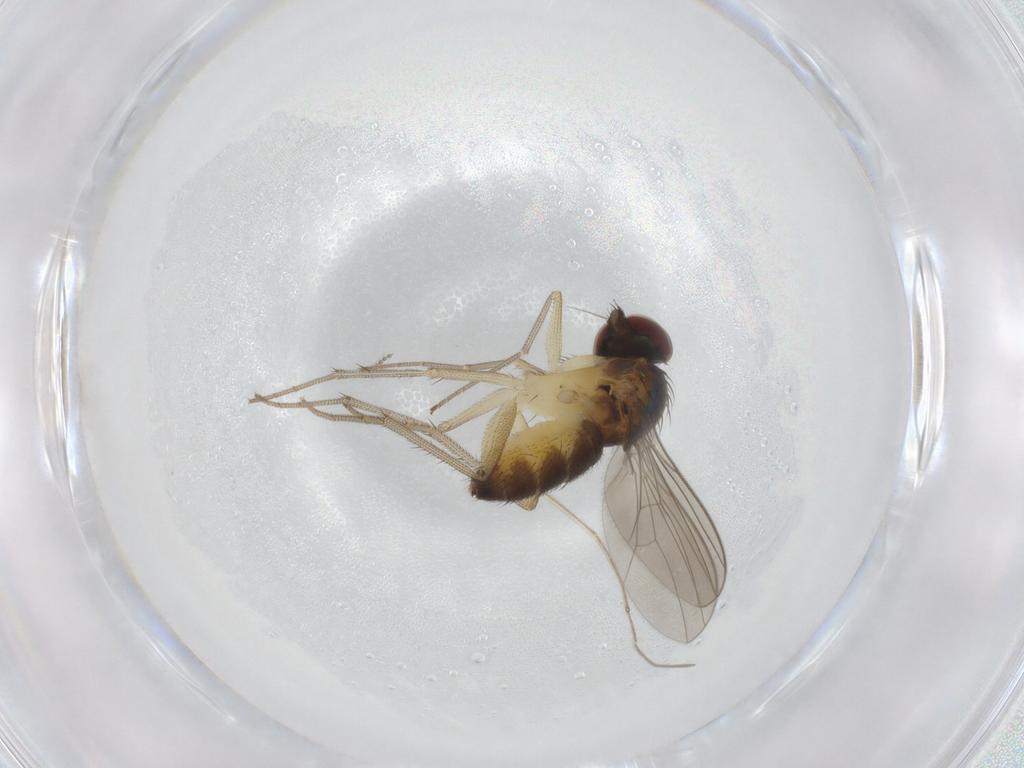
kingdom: Animalia
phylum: Arthropoda
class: Insecta
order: Diptera
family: Dolichopodidae
